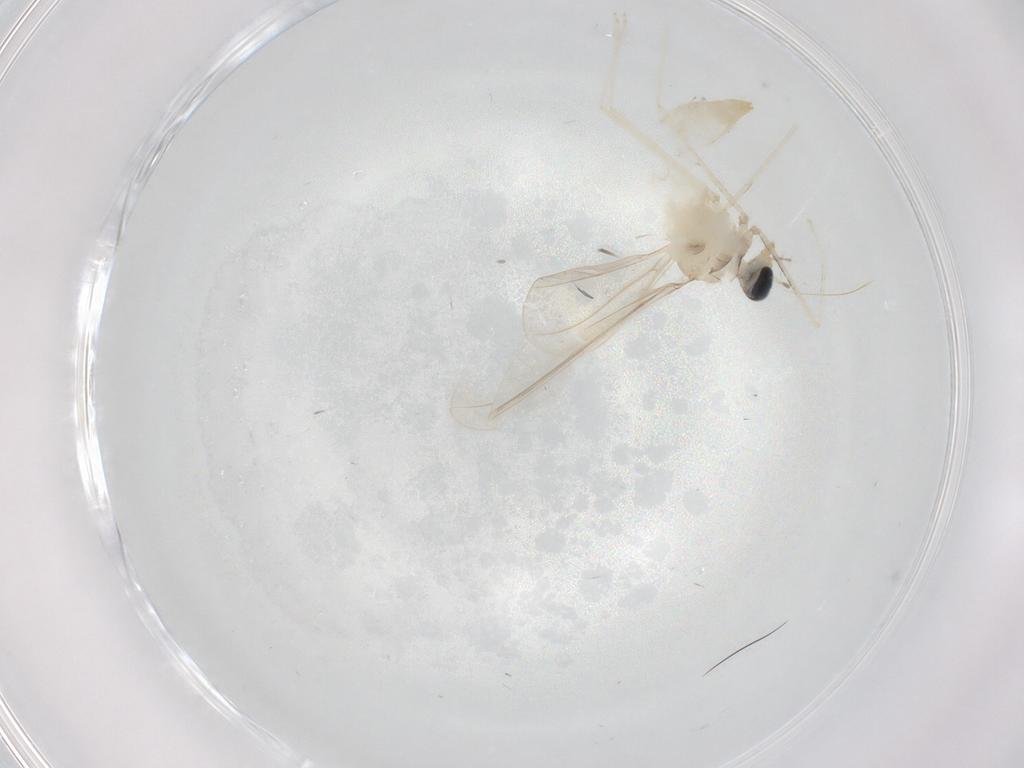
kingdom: Animalia
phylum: Arthropoda
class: Insecta
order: Diptera
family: Cecidomyiidae
